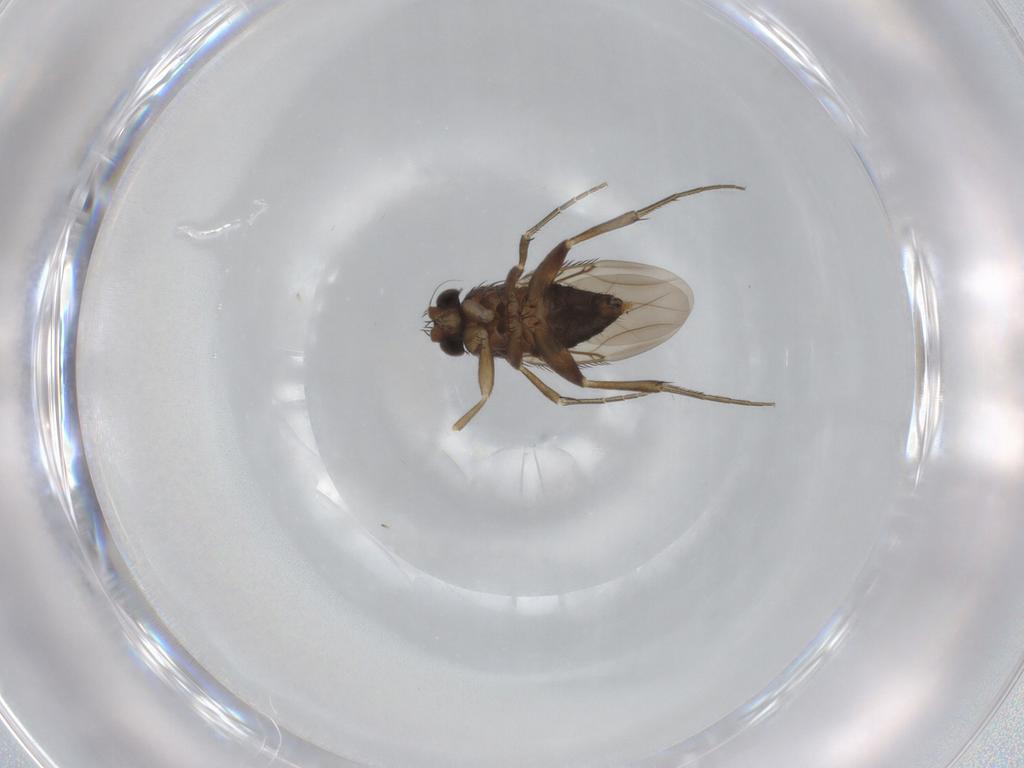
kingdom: Animalia
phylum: Arthropoda
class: Insecta
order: Diptera
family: Phoridae
